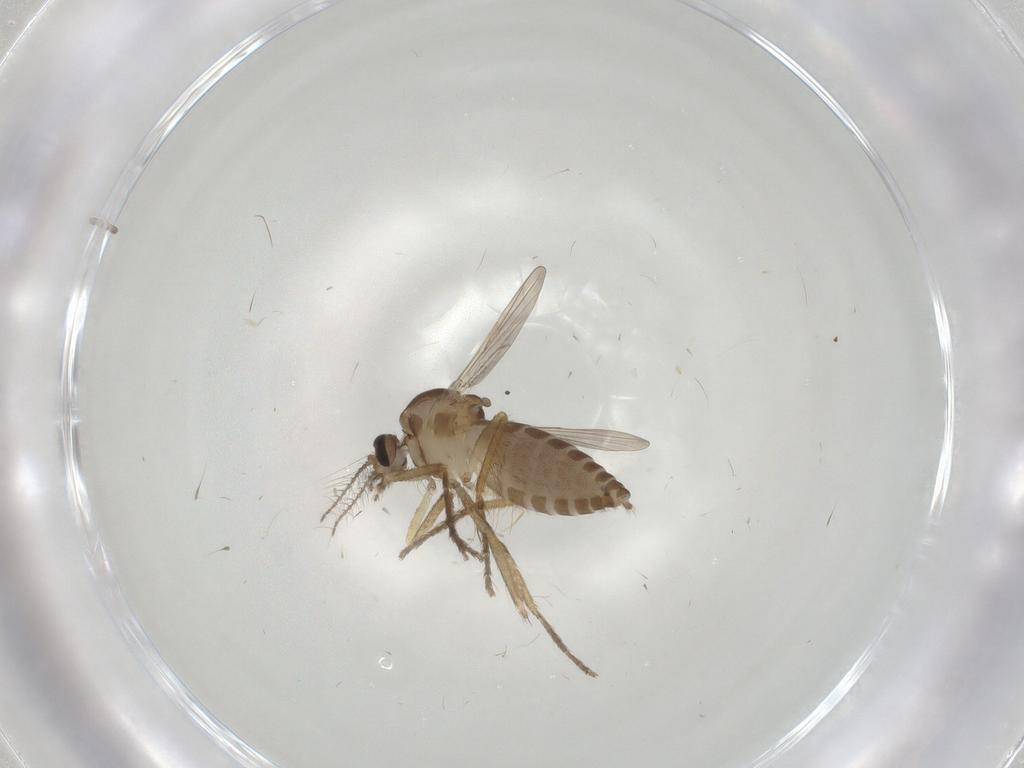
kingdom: Animalia
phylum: Arthropoda
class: Insecta
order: Diptera
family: Ceratopogonidae
